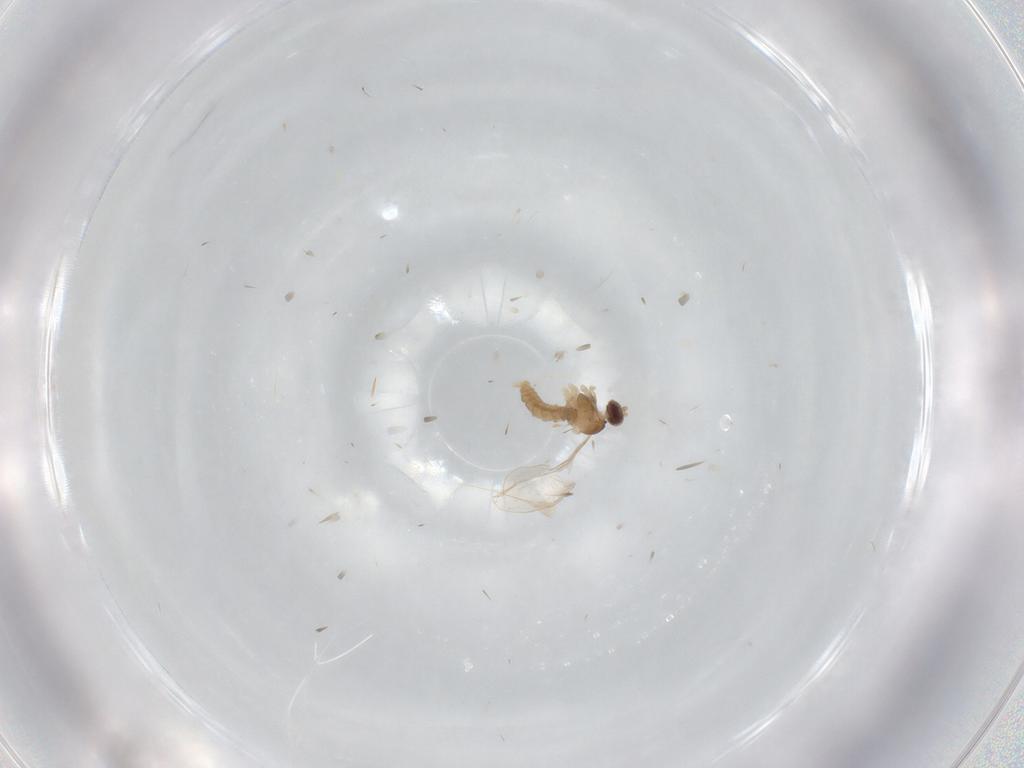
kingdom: Animalia
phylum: Arthropoda
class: Insecta
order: Diptera
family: Cecidomyiidae
